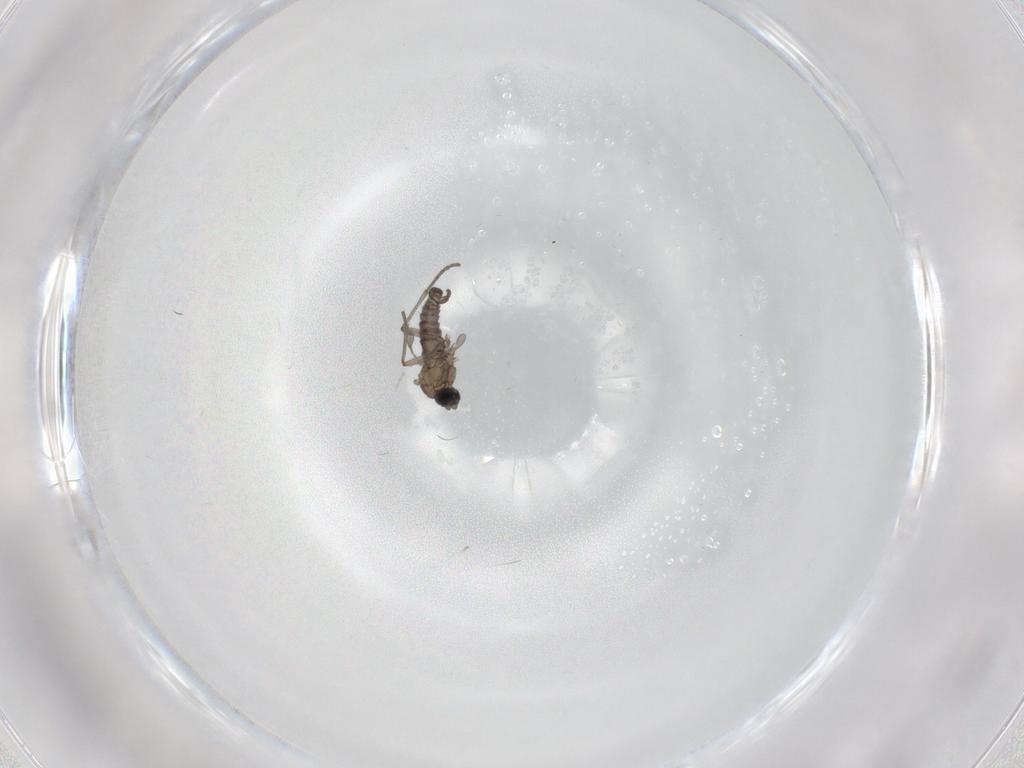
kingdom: Animalia
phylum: Arthropoda
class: Insecta
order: Diptera
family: Sciaridae
